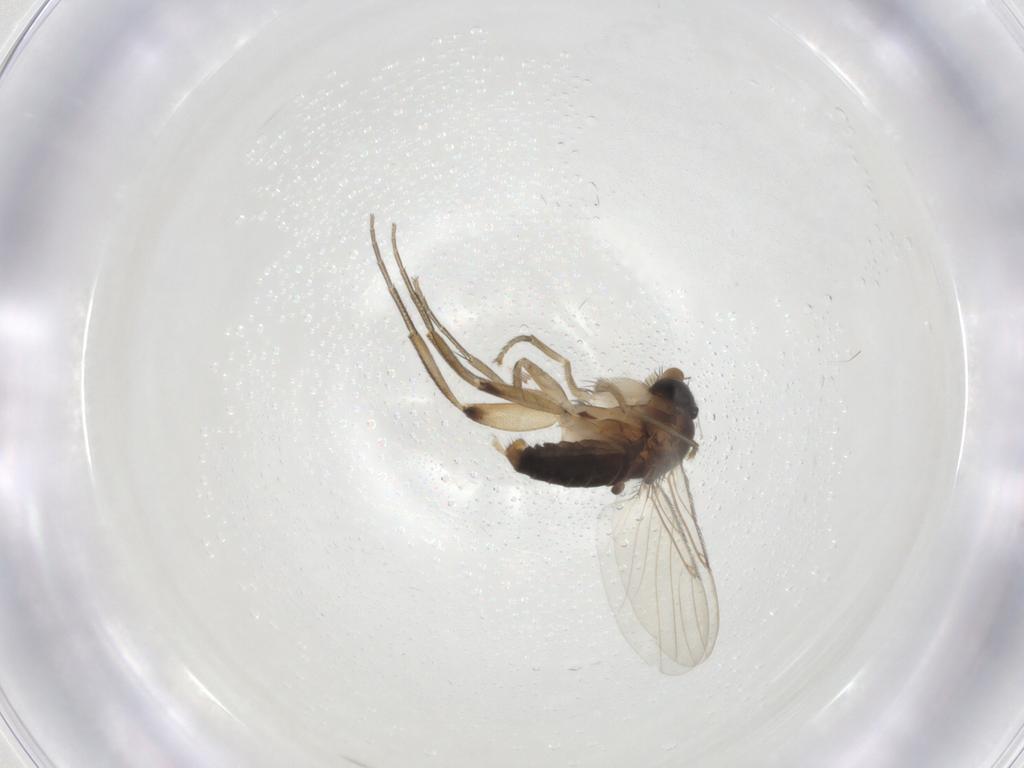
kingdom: Animalia
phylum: Arthropoda
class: Insecta
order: Diptera
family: Phoridae
